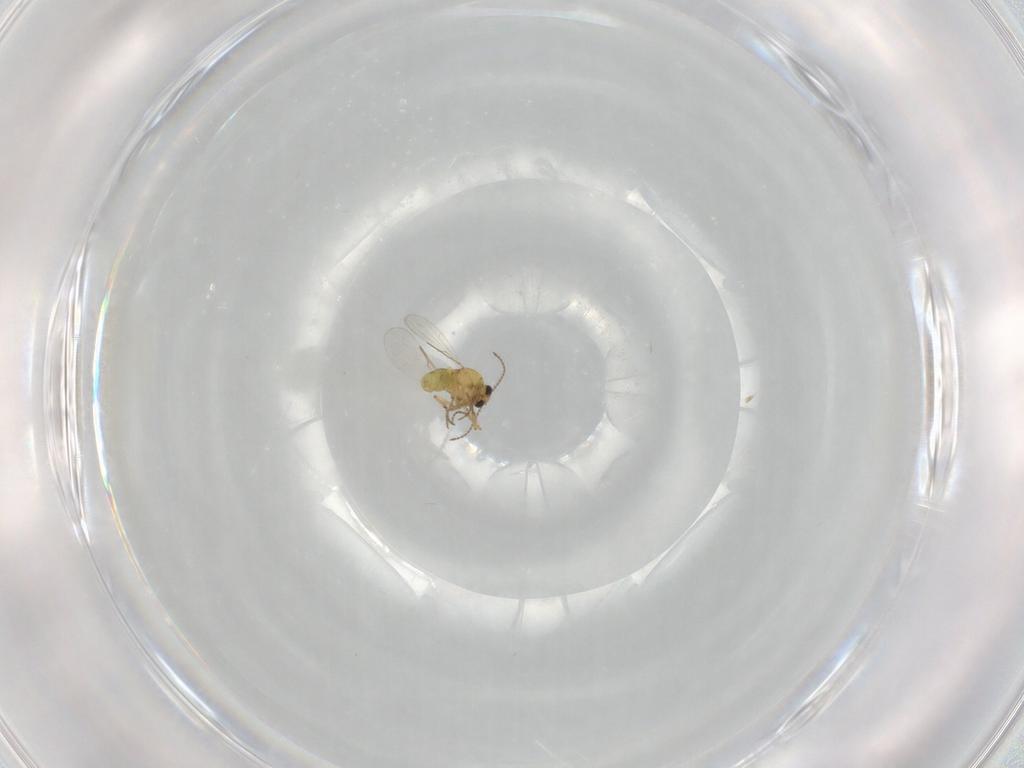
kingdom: Animalia
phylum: Arthropoda
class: Insecta
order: Diptera
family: Ceratopogonidae
